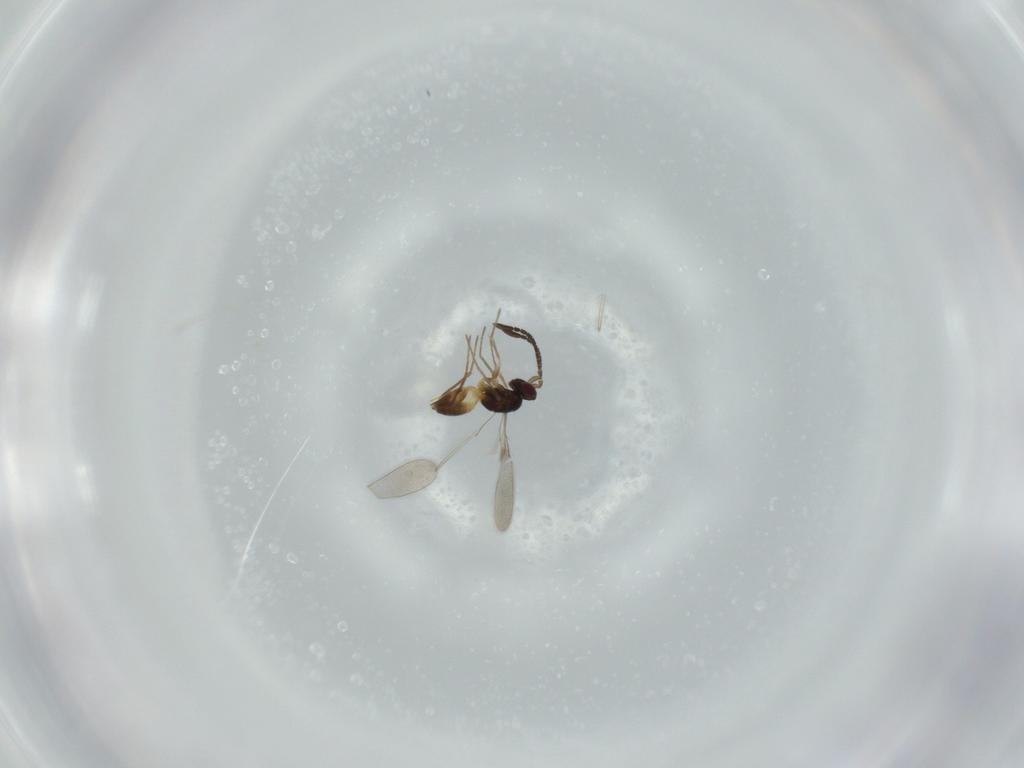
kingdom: Animalia
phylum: Arthropoda
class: Insecta
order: Hymenoptera
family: Mymaridae
